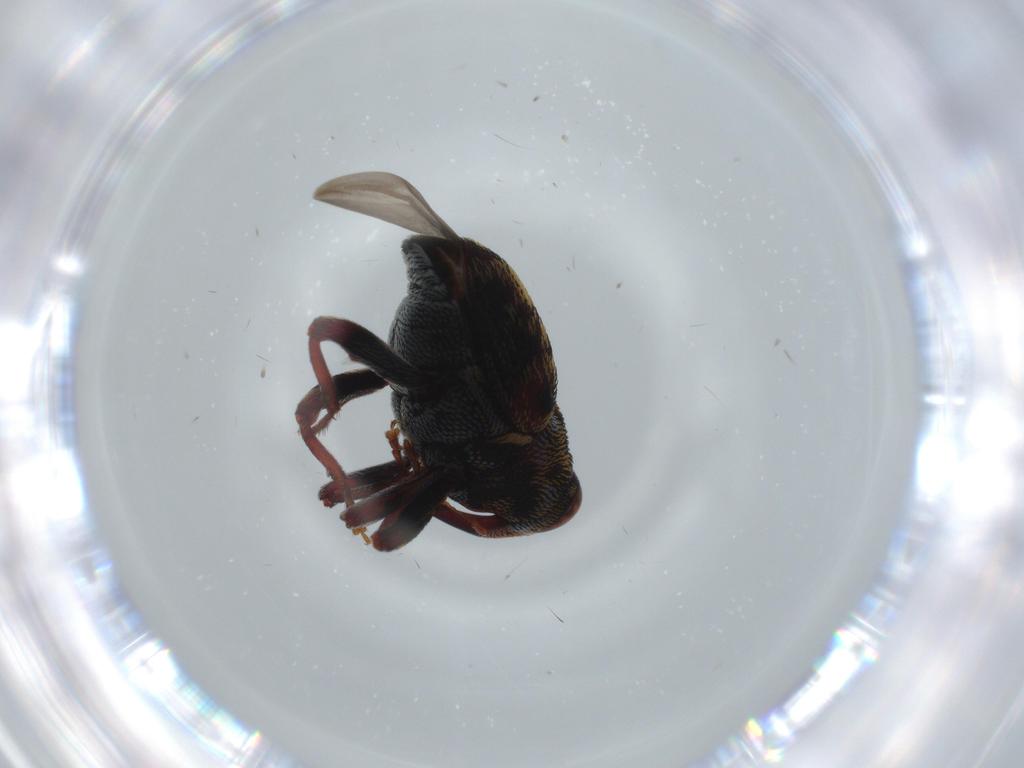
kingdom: Animalia
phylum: Arthropoda
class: Insecta
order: Coleoptera
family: Curculionidae
